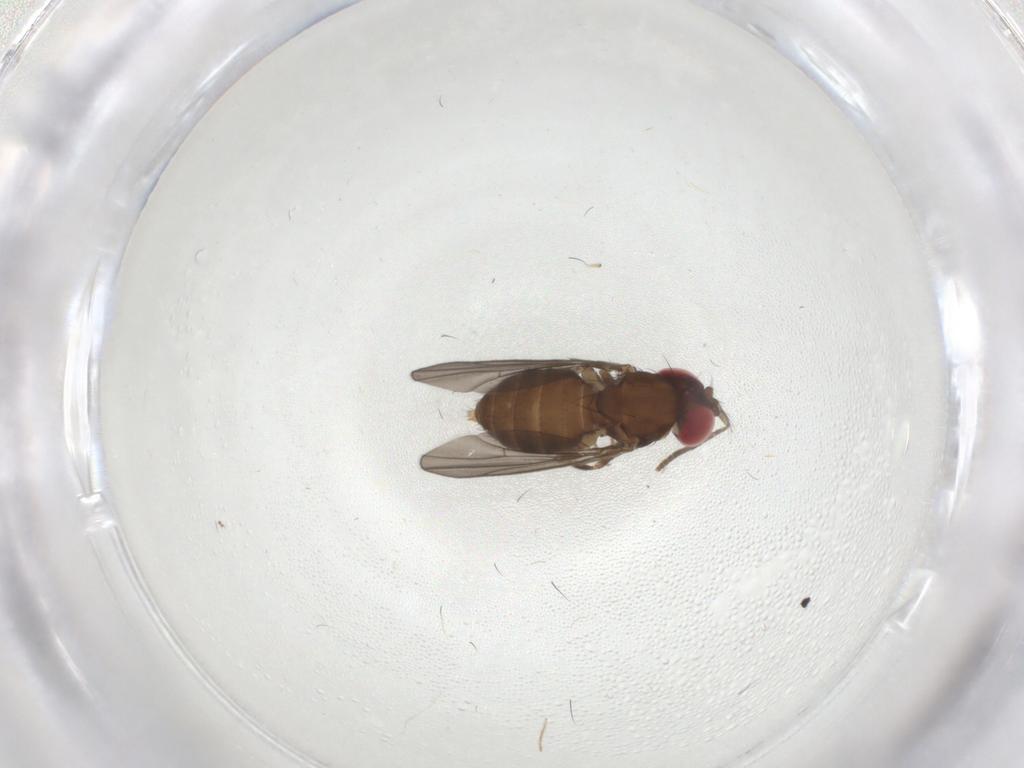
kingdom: Animalia
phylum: Arthropoda
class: Insecta
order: Diptera
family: Drosophilidae
